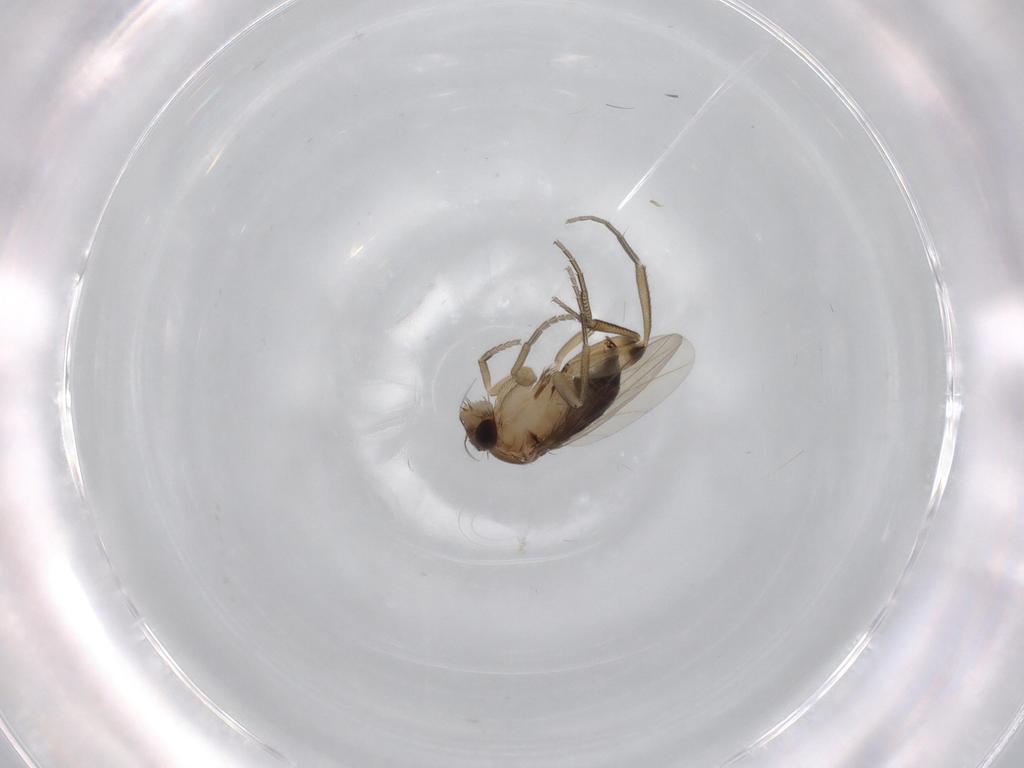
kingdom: Animalia
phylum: Arthropoda
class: Insecta
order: Diptera
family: Phoridae
